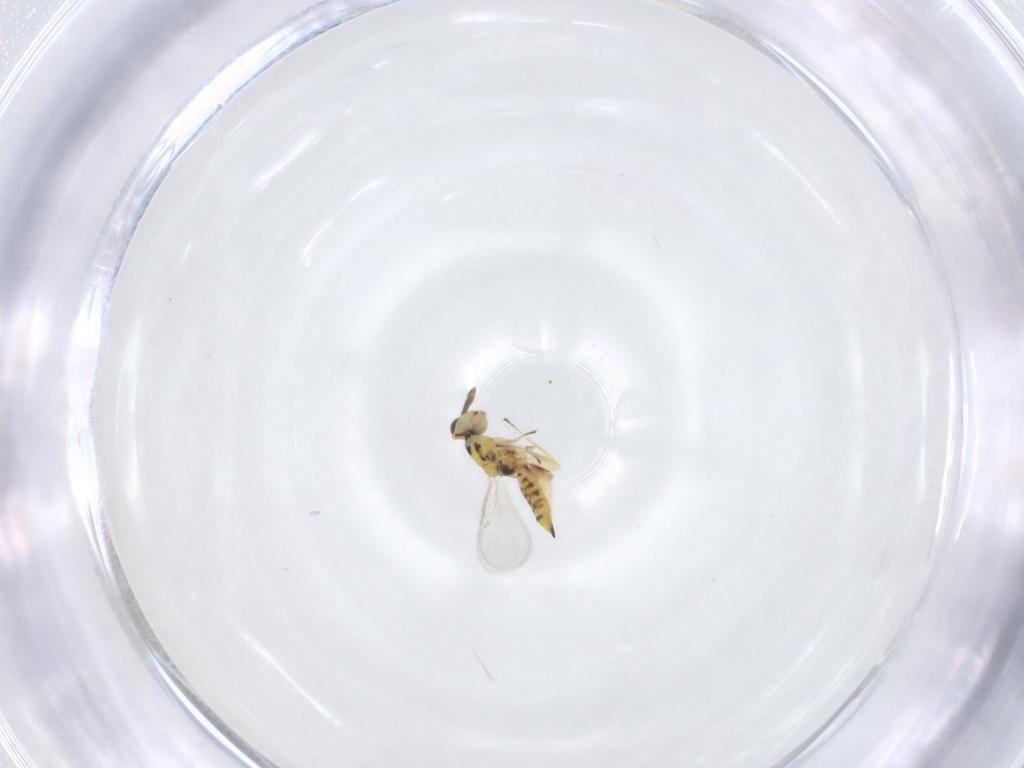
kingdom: Animalia
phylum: Arthropoda
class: Insecta
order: Hymenoptera
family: Eulophidae
